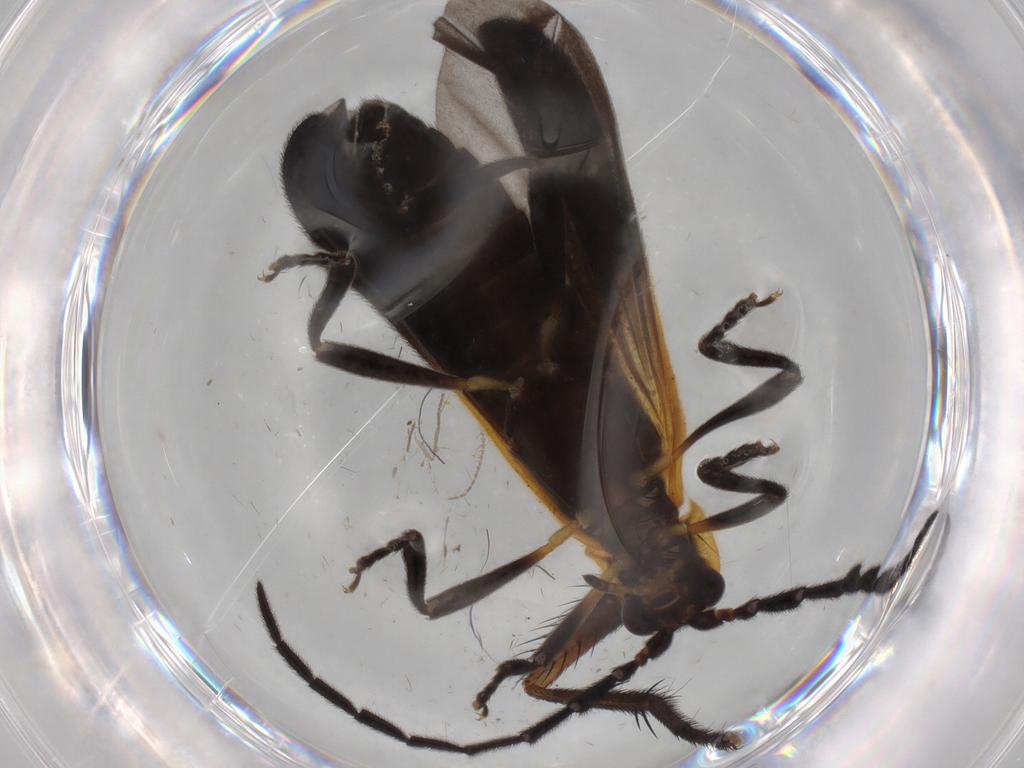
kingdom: Animalia
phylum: Arthropoda
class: Insecta
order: Coleoptera
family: Lycidae
